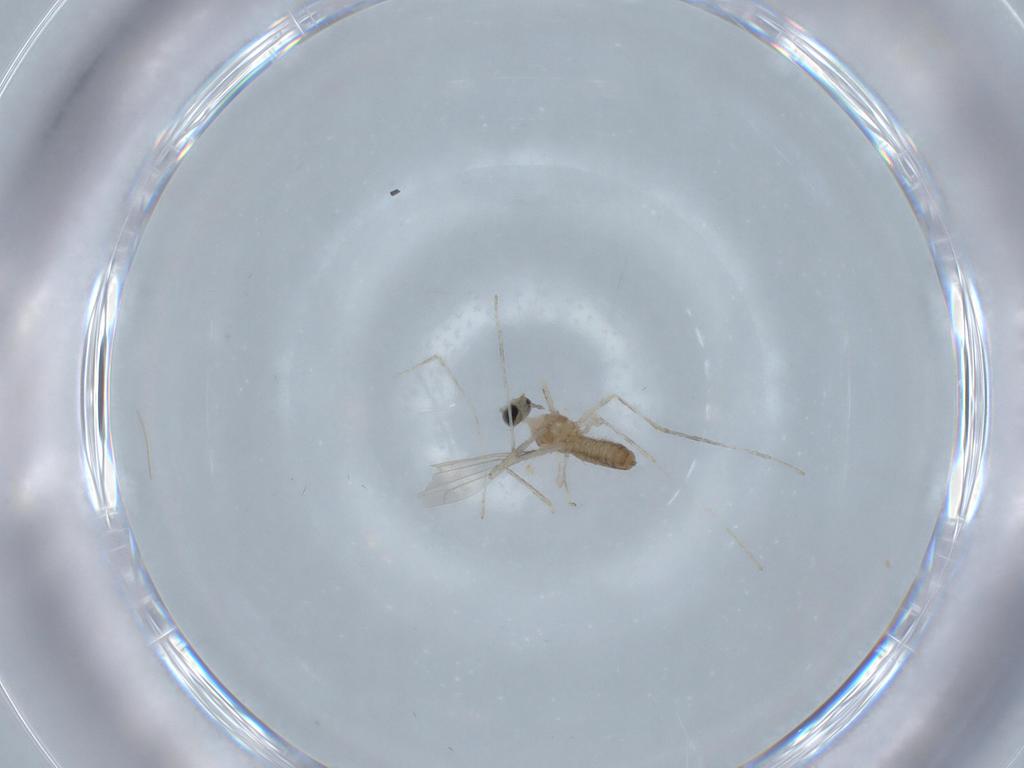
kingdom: Animalia
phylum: Arthropoda
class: Insecta
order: Diptera
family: Cecidomyiidae
